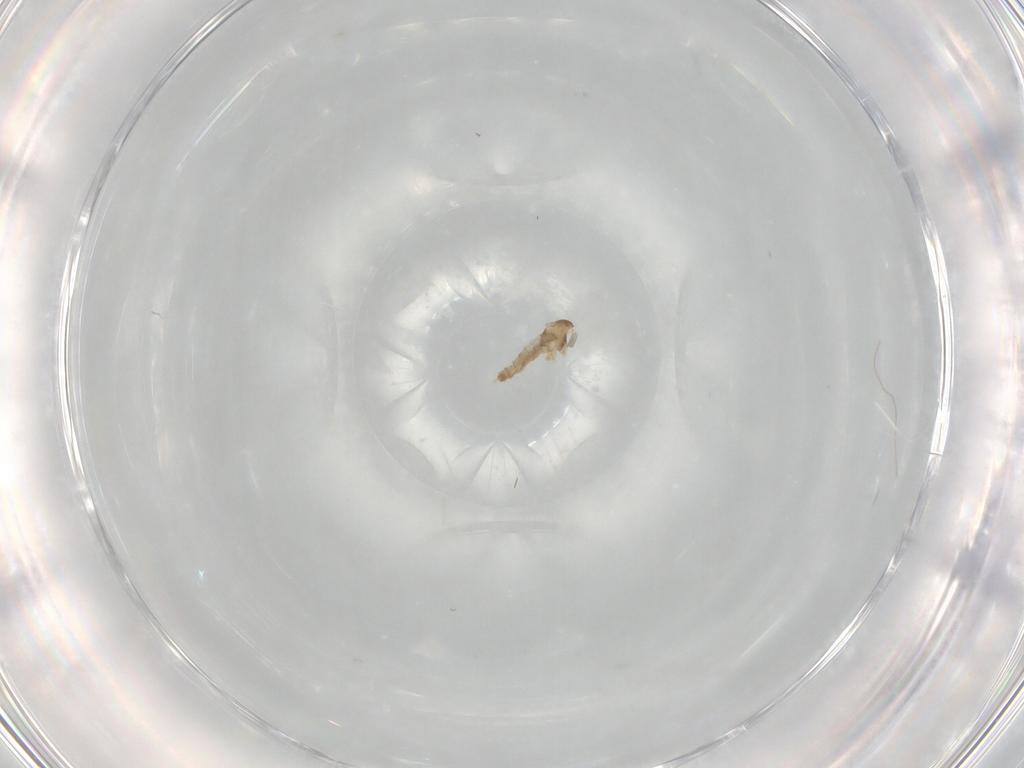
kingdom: Animalia
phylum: Arthropoda
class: Insecta
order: Diptera
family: Cecidomyiidae
